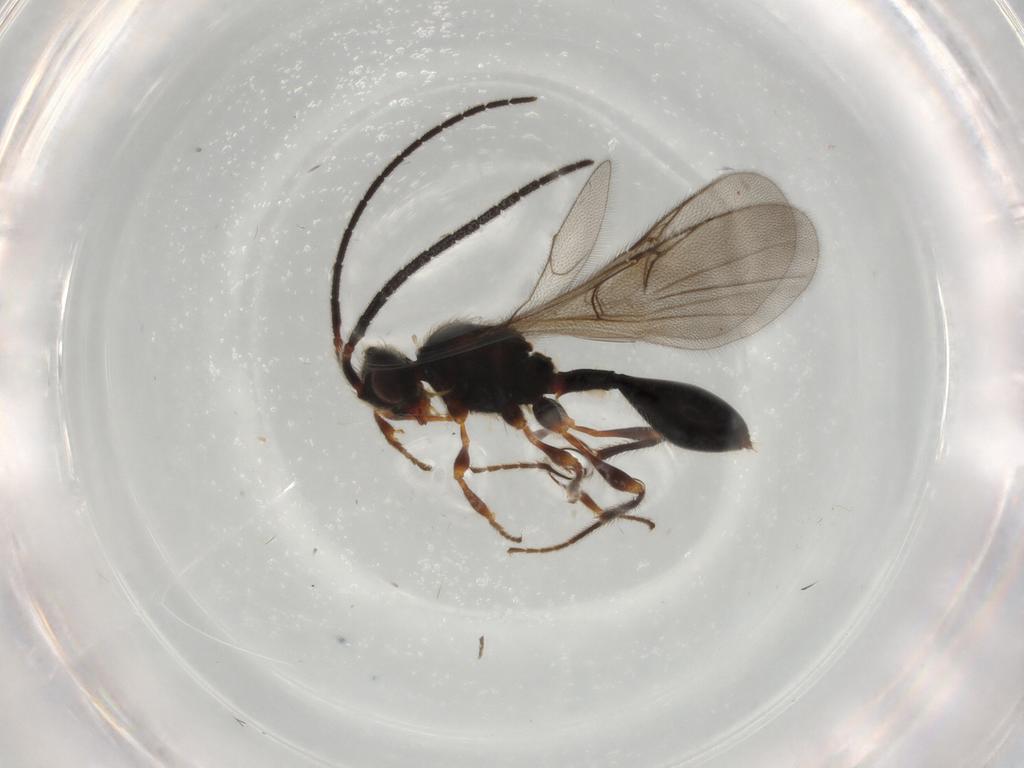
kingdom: Animalia
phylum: Arthropoda
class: Insecta
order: Hymenoptera
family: Diapriidae
